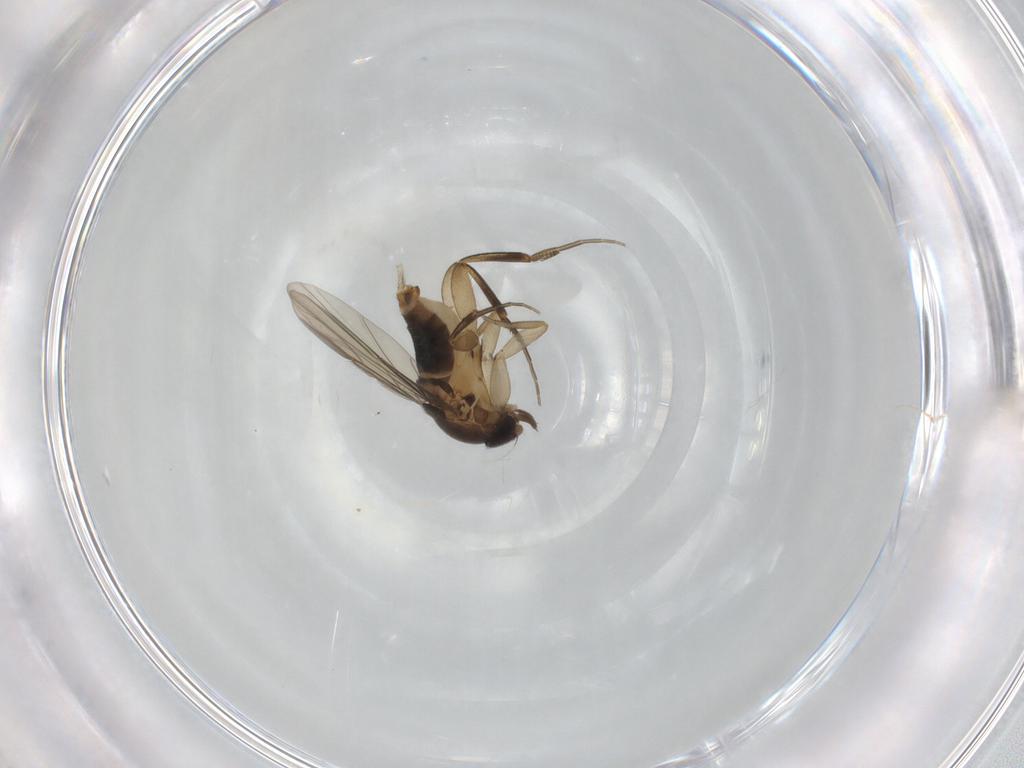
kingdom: Animalia
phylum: Arthropoda
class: Insecta
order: Diptera
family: Phoridae
